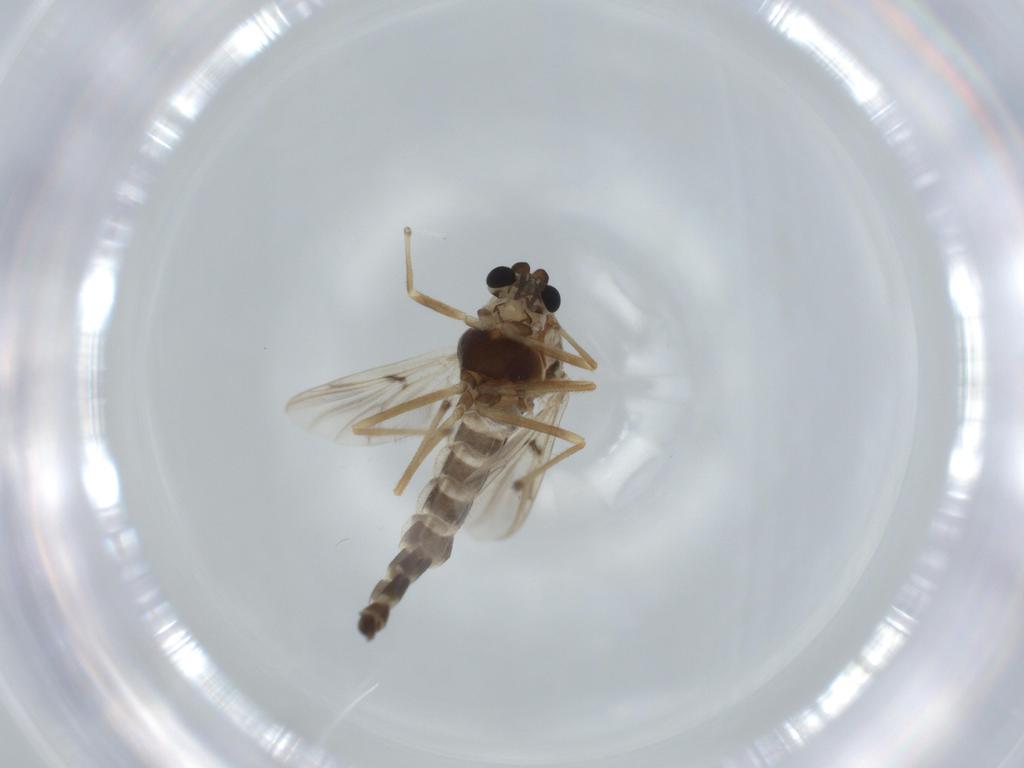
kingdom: Animalia
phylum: Arthropoda
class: Insecta
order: Diptera
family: Chironomidae
